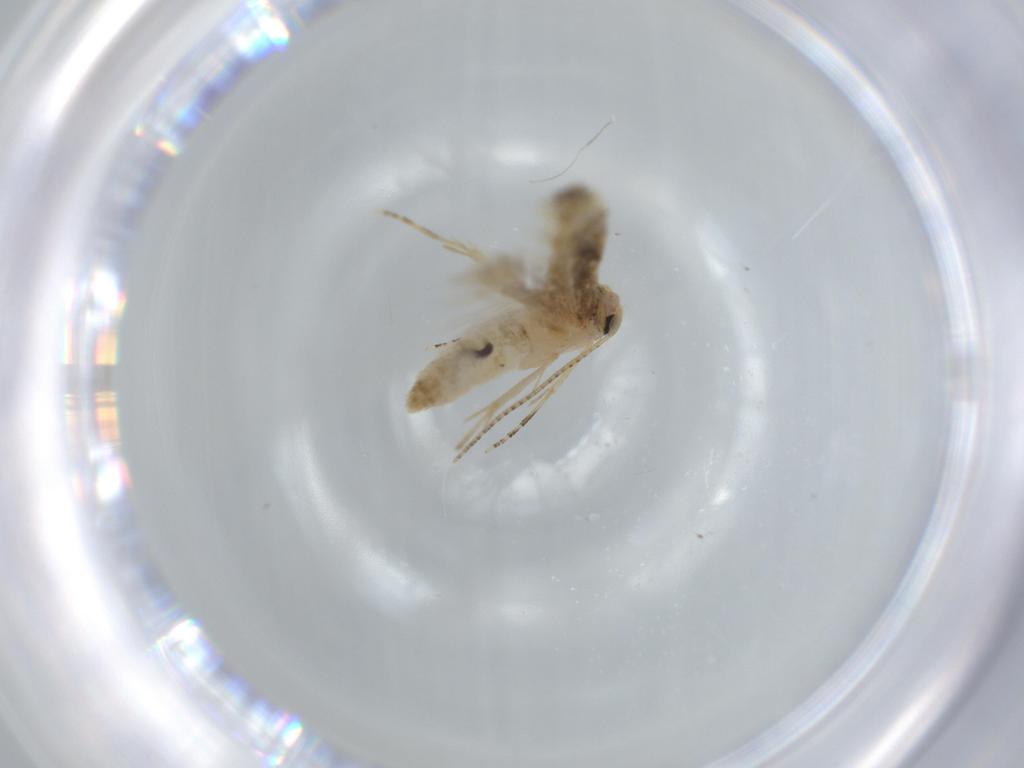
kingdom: Animalia
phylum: Arthropoda
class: Insecta
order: Lepidoptera
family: Bucculatricidae
